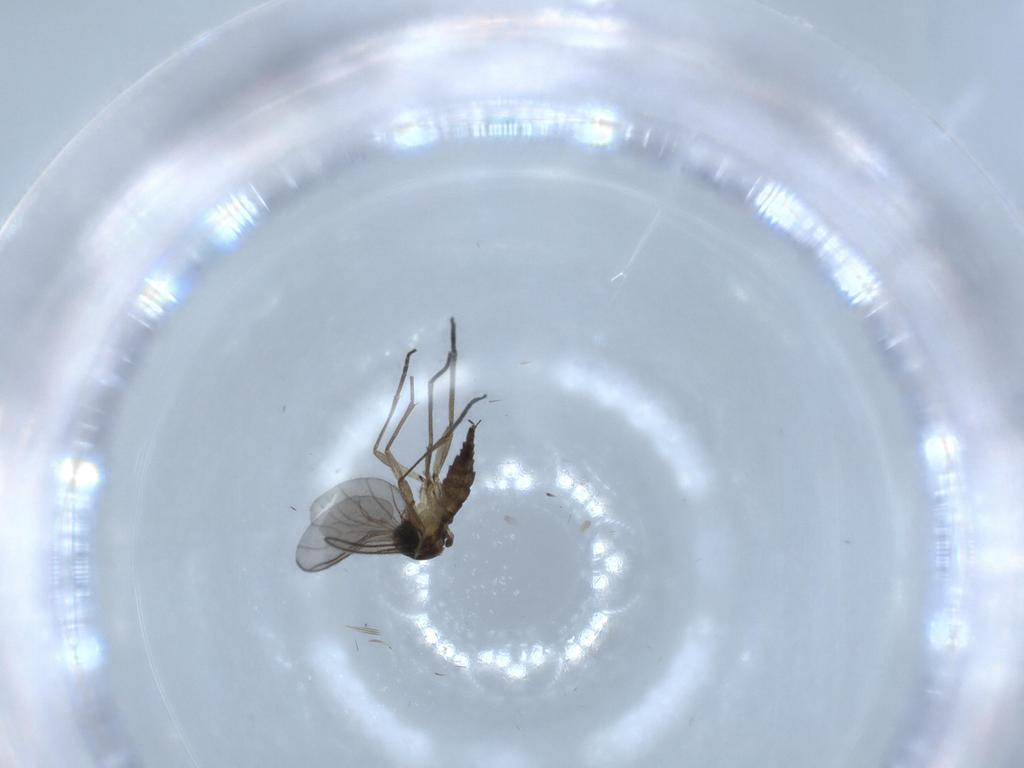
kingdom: Animalia
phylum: Arthropoda
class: Insecta
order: Diptera
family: Sciaridae
